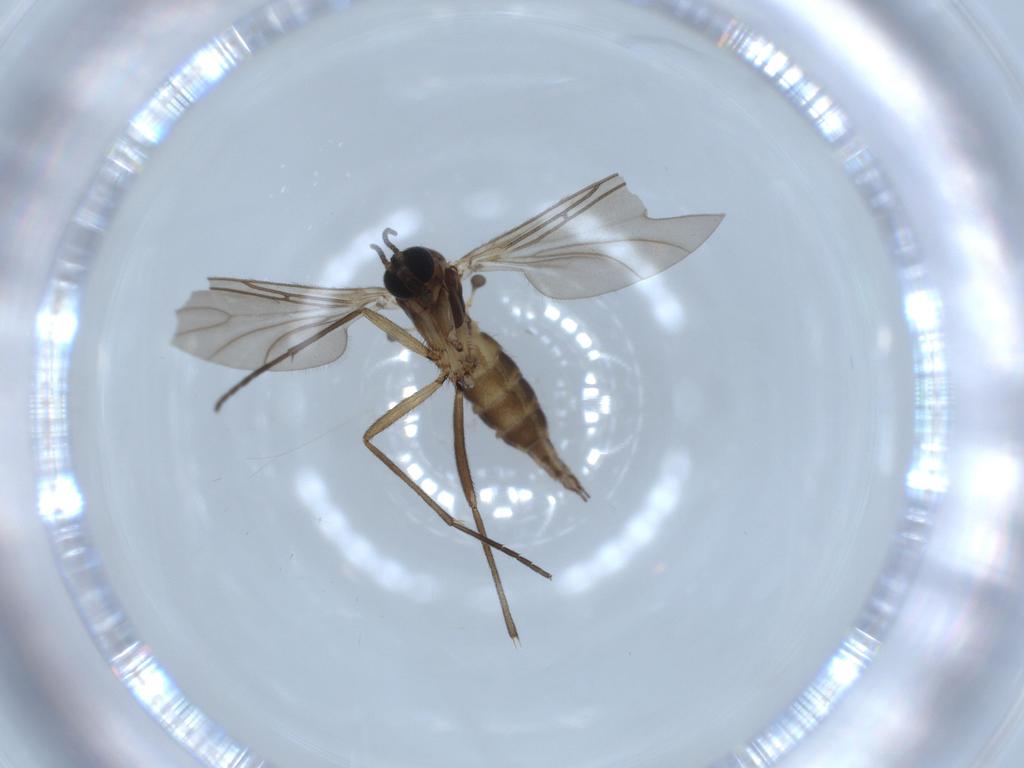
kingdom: Animalia
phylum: Arthropoda
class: Insecta
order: Diptera
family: Sciaridae
